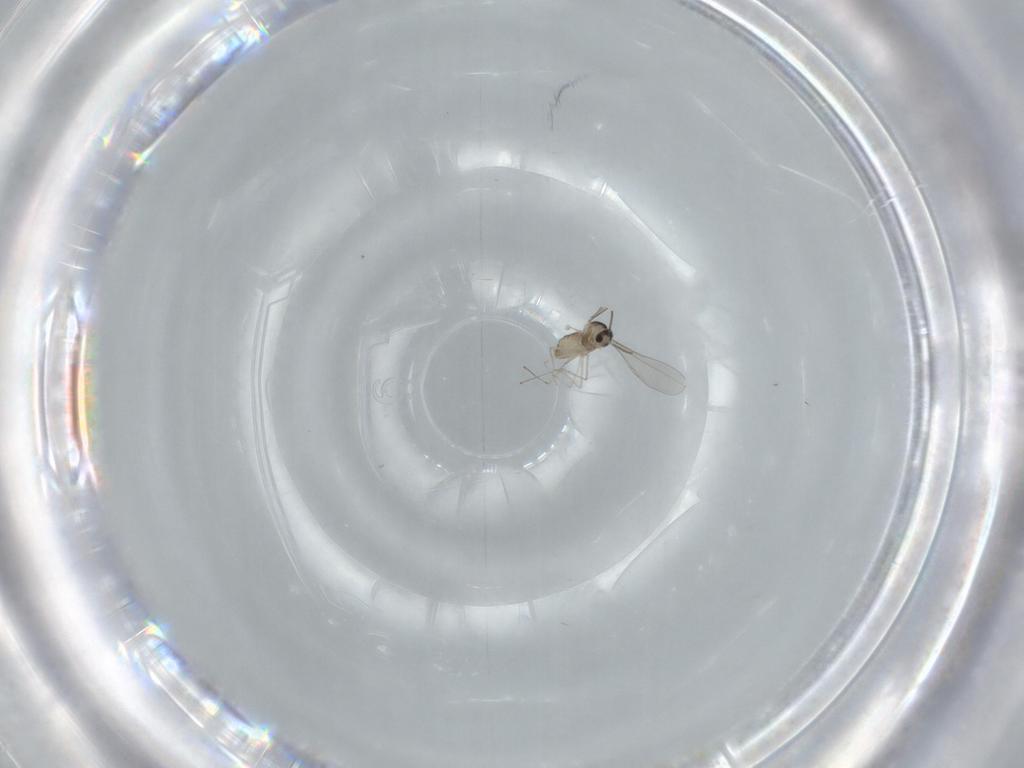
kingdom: Animalia
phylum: Arthropoda
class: Insecta
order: Diptera
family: Cecidomyiidae
